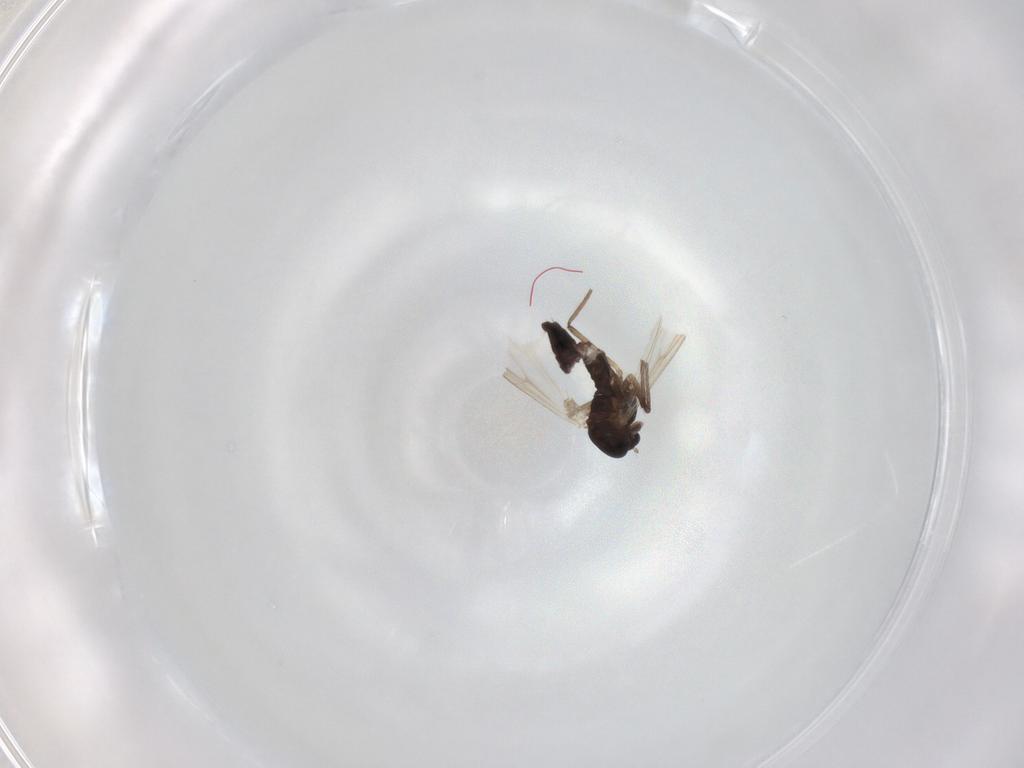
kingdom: Animalia
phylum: Arthropoda
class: Insecta
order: Diptera
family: Chironomidae
